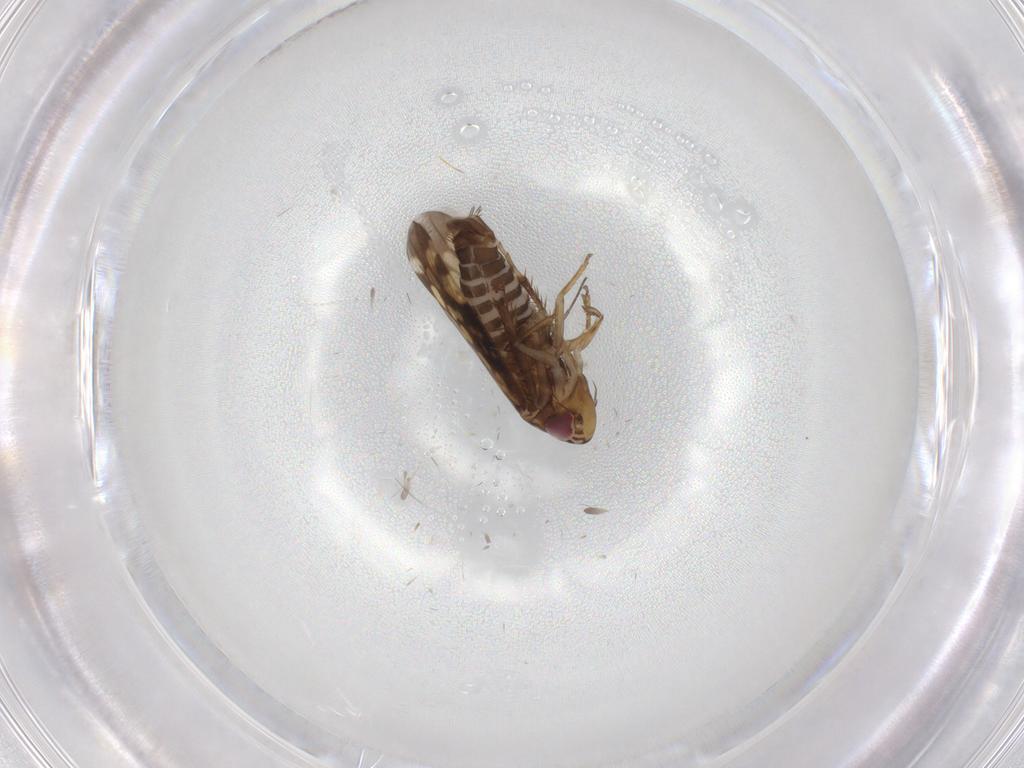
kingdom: Animalia
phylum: Arthropoda
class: Insecta
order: Hemiptera
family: Cicadellidae
